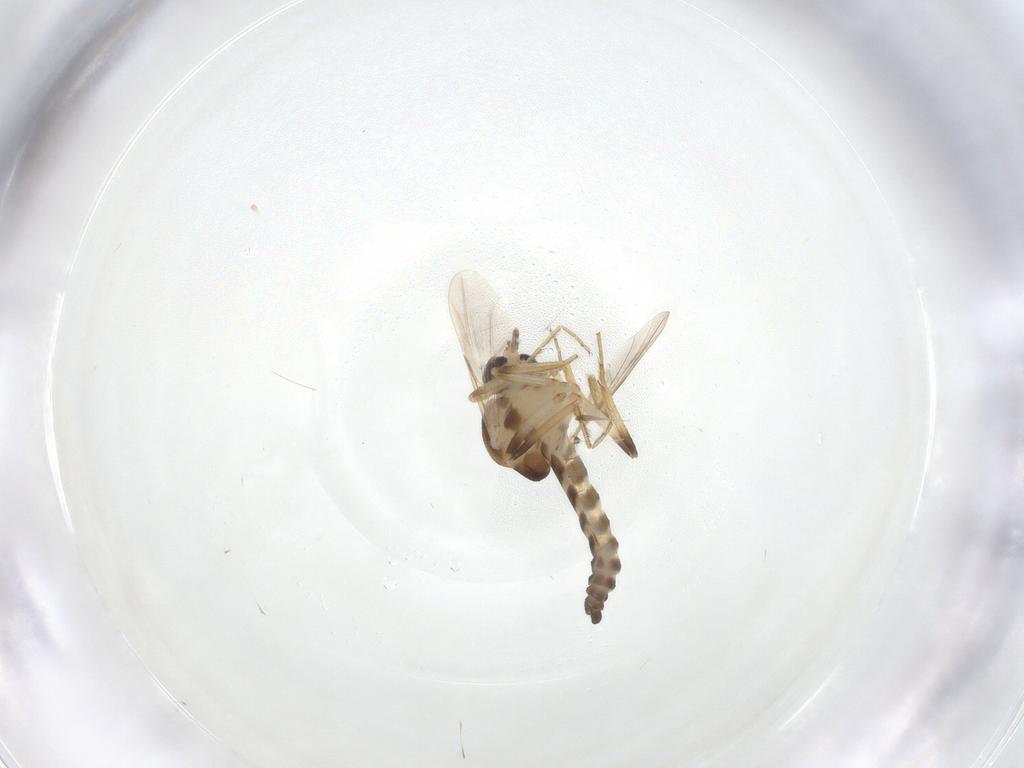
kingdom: Animalia
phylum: Arthropoda
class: Insecta
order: Diptera
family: Ceratopogonidae
